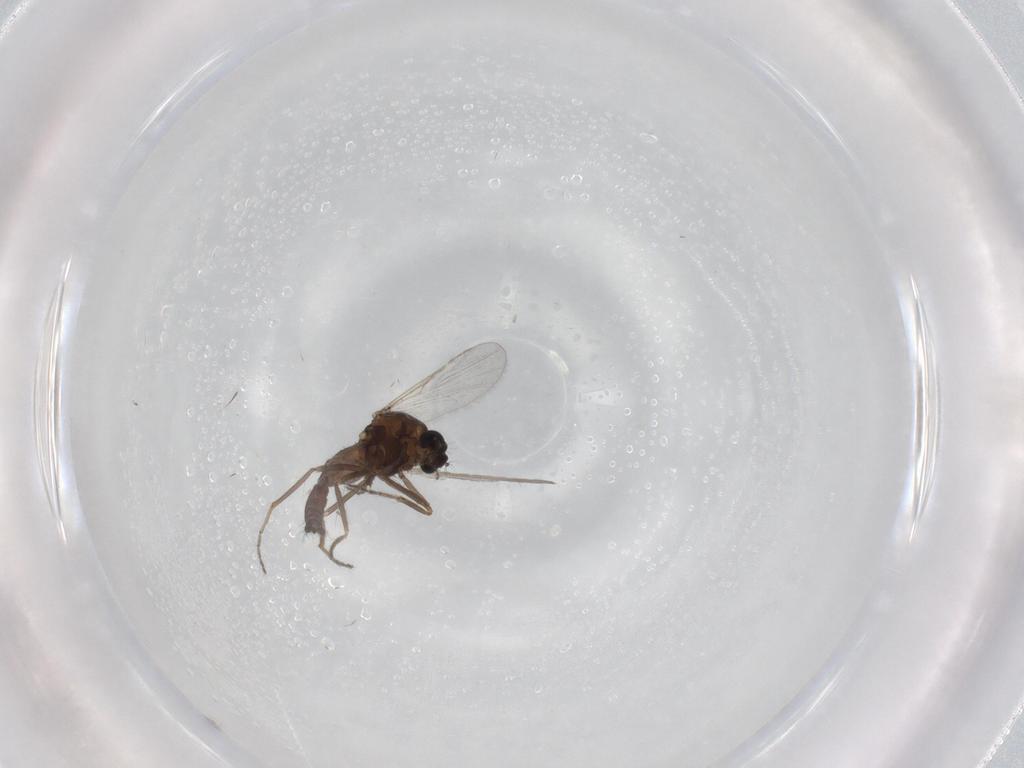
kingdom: Animalia
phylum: Arthropoda
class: Insecta
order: Diptera
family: Ceratopogonidae
